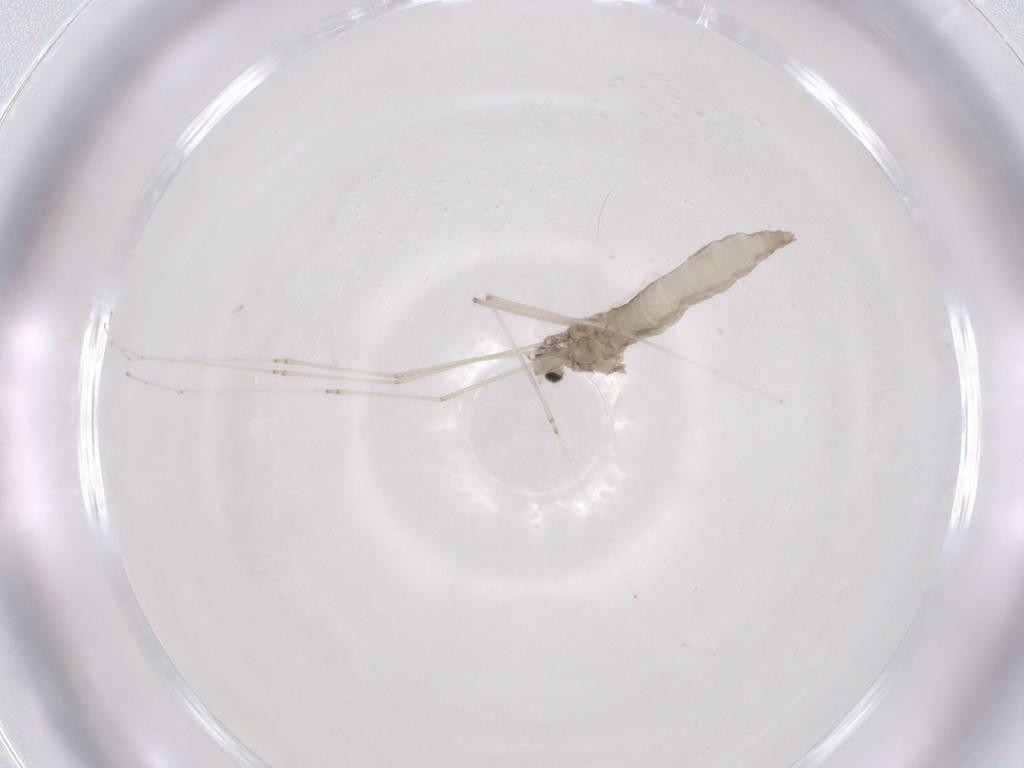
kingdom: Animalia
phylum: Arthropoda
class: Insecta
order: Diptera
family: Cecidomyiidae
